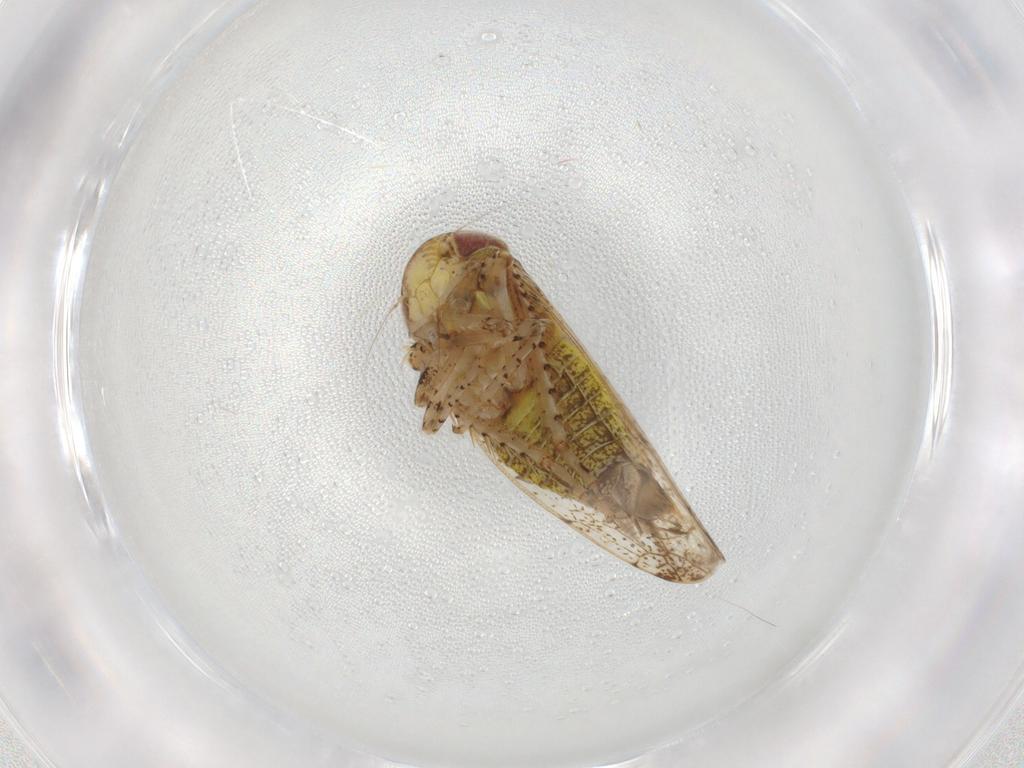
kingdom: Animalia
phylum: Arthropoda
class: Insecta
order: Hemiptera
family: Cicadellidae
